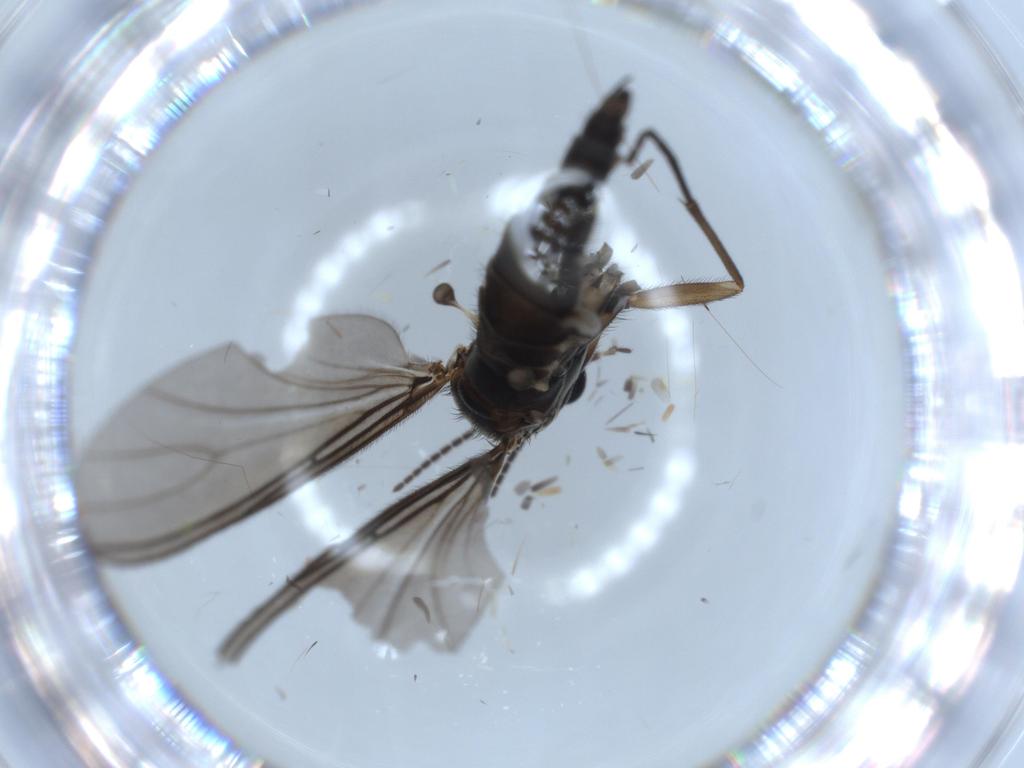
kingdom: Animalia
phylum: Arthropoda
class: Insecta
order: Diptera
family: Sciaridae
